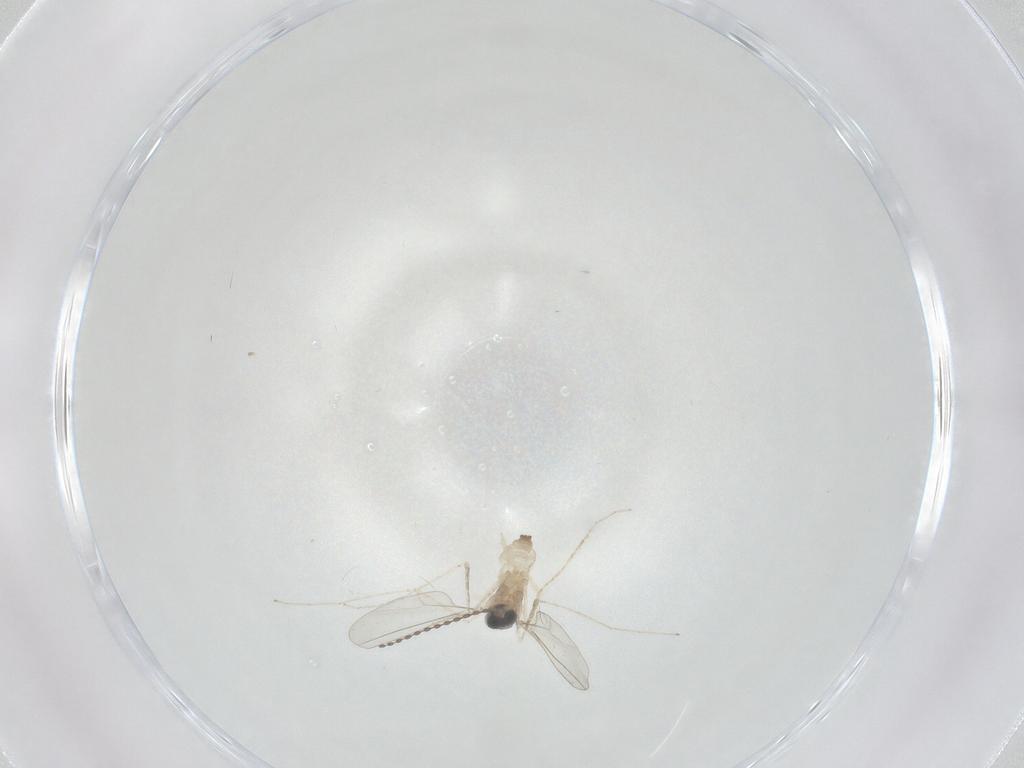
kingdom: Animalia
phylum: Arthropoda
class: Insecta
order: Diptera
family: Cecidomyiidae
